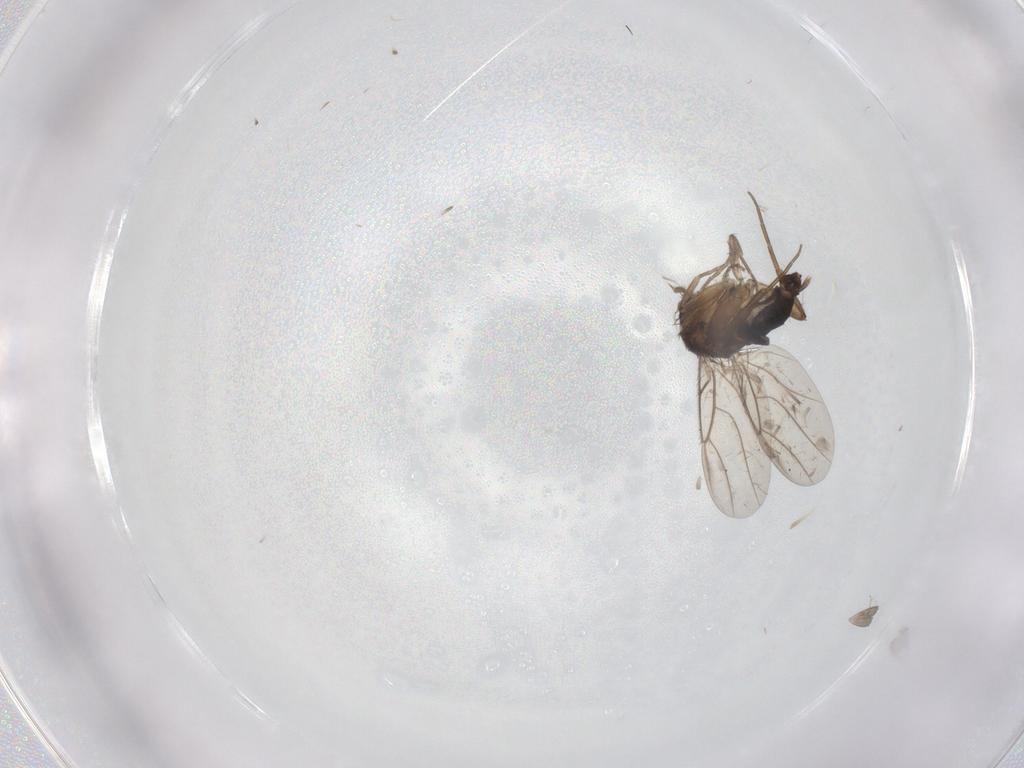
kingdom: Animalia
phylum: Arthropoda
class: Insecta
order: Diptera
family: Phoridae
